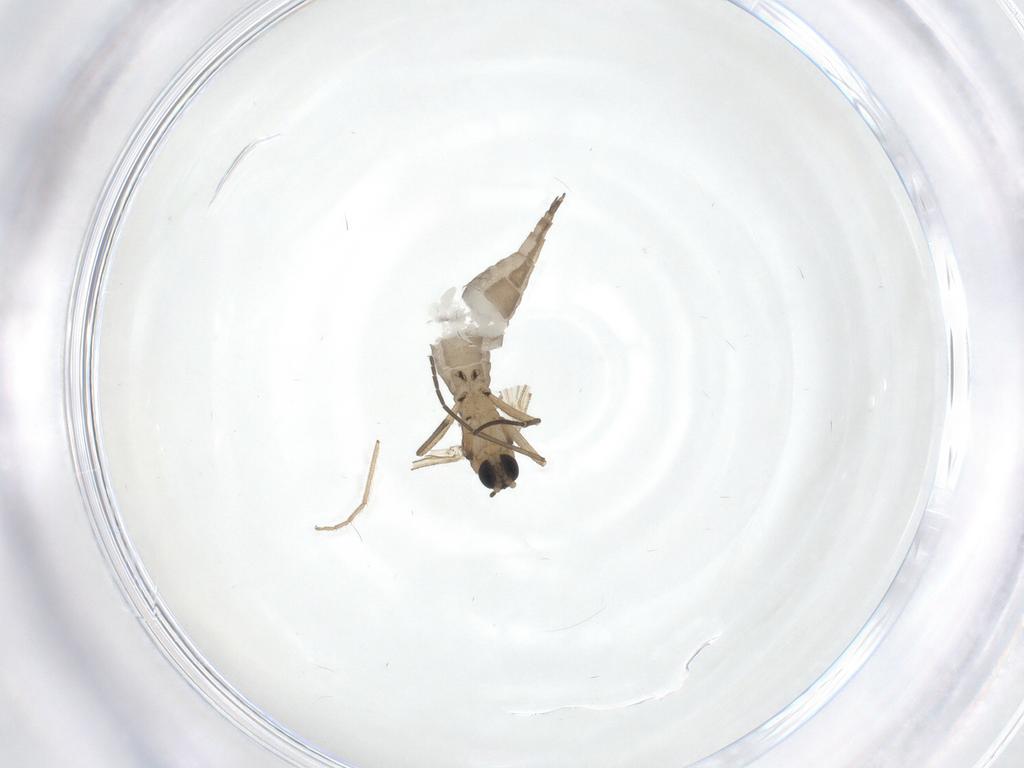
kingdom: Animalia
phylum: Arthropoda
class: Insecta
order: Diptera
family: Sciaridae
